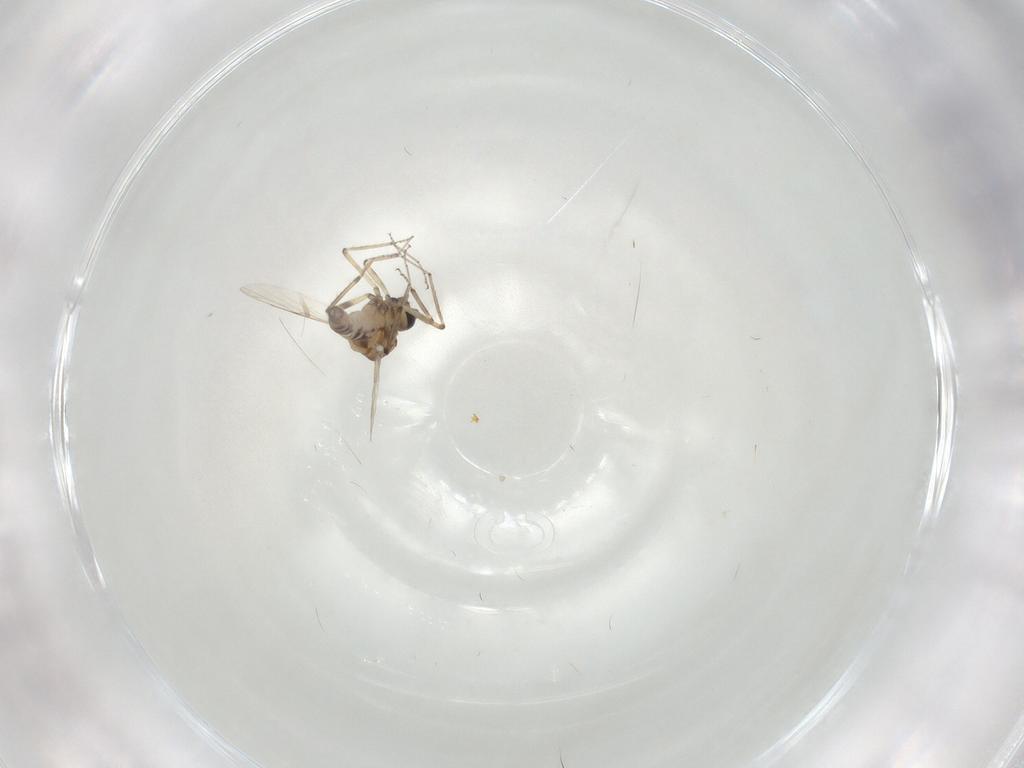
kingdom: Animalia
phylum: Arthropoda
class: Insecta
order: Diptera
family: Ceratopogonidae
